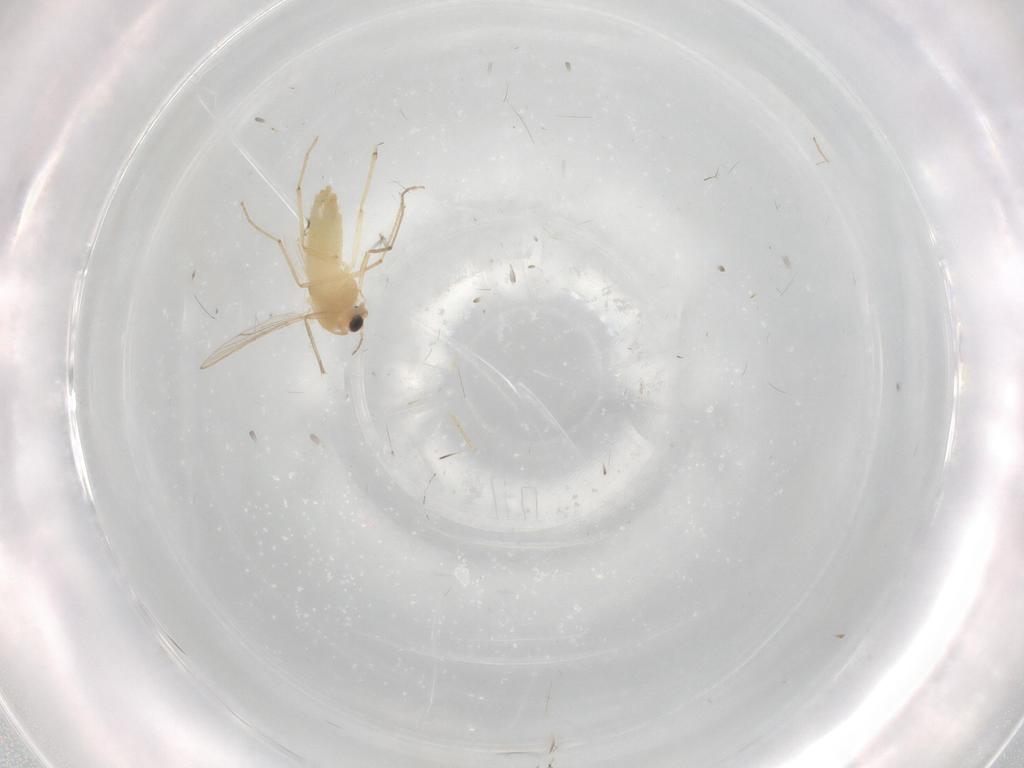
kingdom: Animalia
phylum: Arthropoda
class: Insecta
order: Diptera
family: Chironomidae
